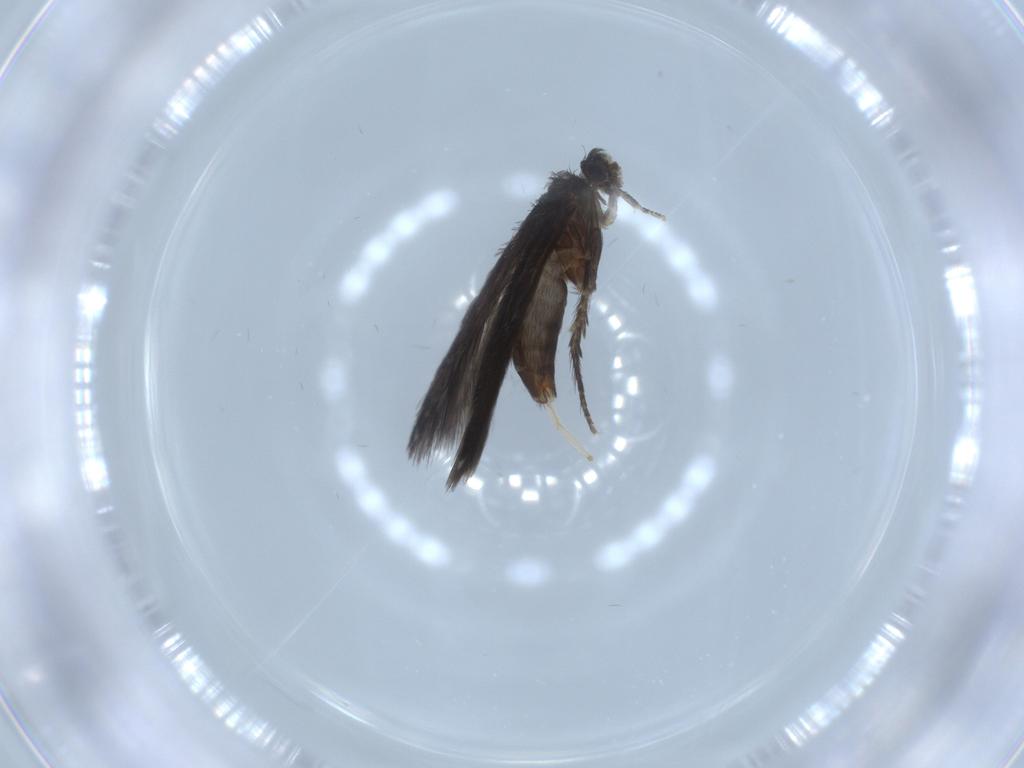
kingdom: Animalia
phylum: Arthropoda
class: Insecta
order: Trichoptera
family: Hydroptilidae
